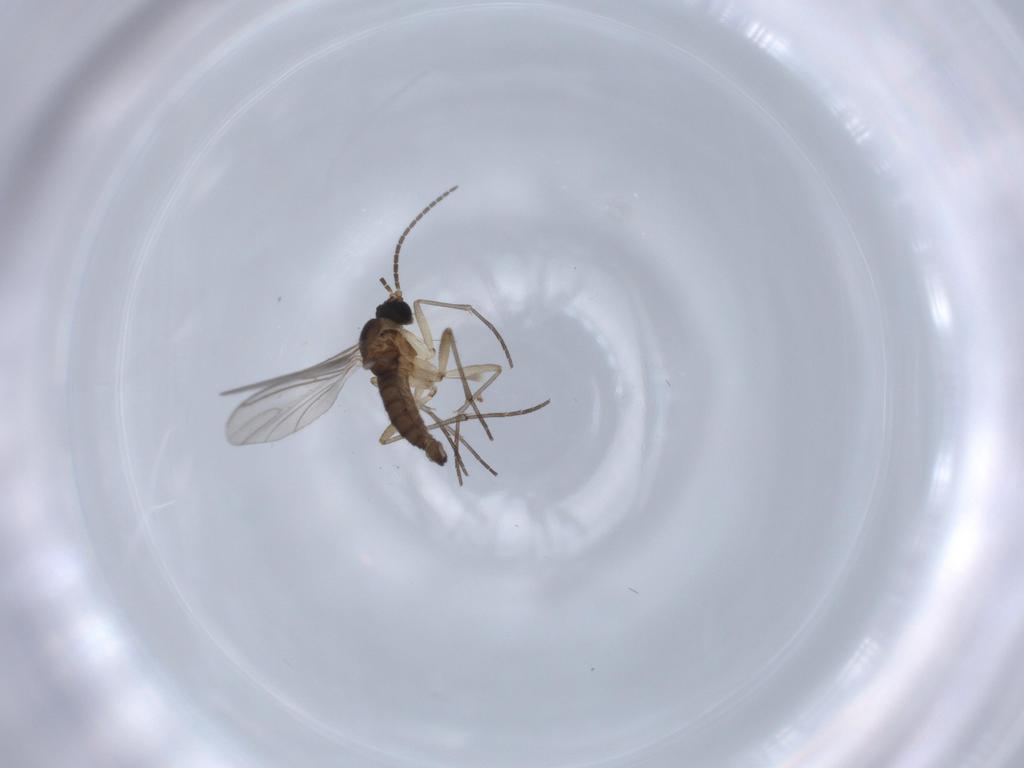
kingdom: Animalia
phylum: Arthropoda
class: Insecta
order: Diptera
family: Sciaridae
